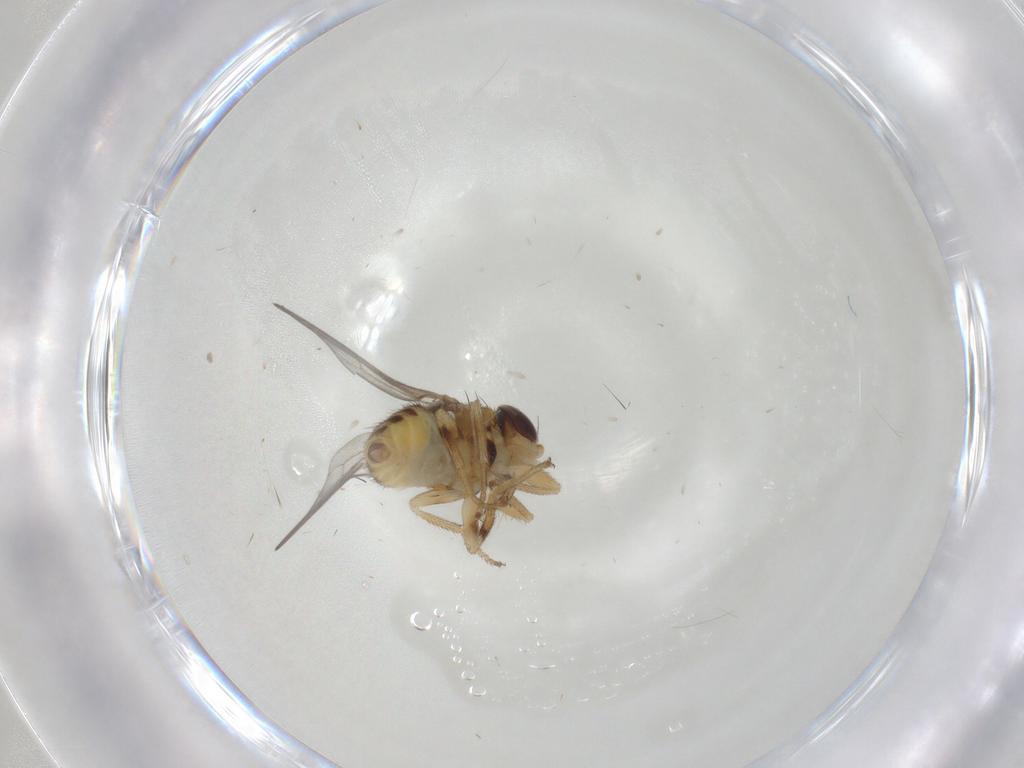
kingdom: Animalia
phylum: Arthropoda
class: Insecta
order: Diptera
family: Chloropidae
